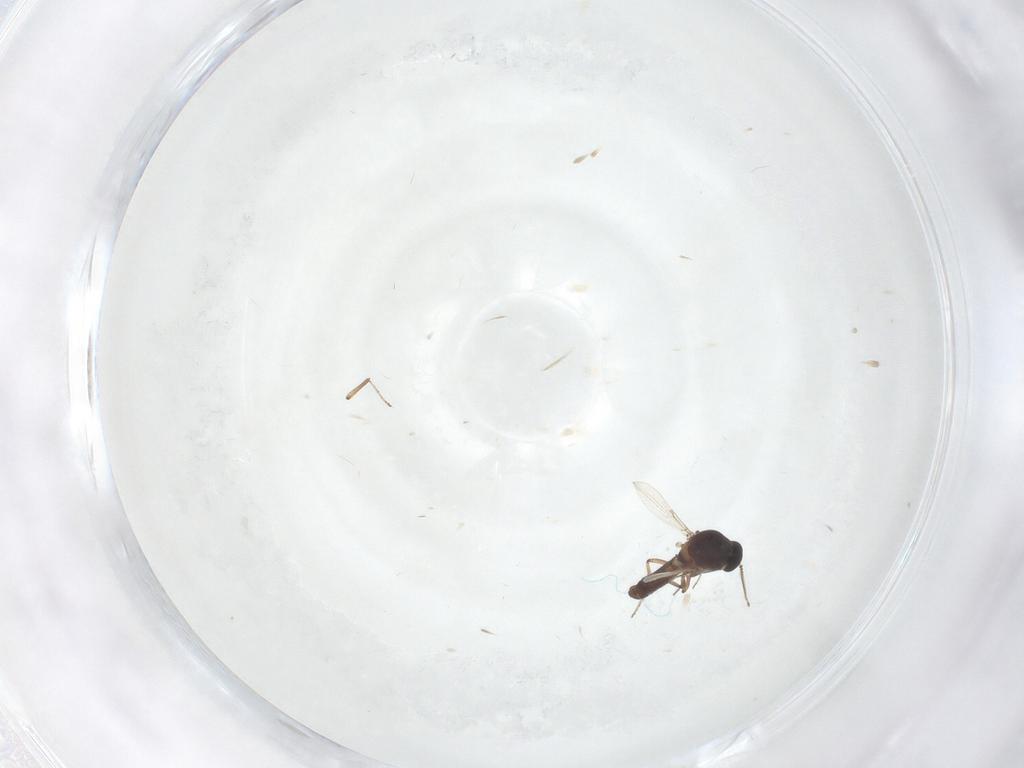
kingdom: Animalia
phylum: Arthropoda
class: Insecta
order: Diptera
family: Ceratopogonidae
